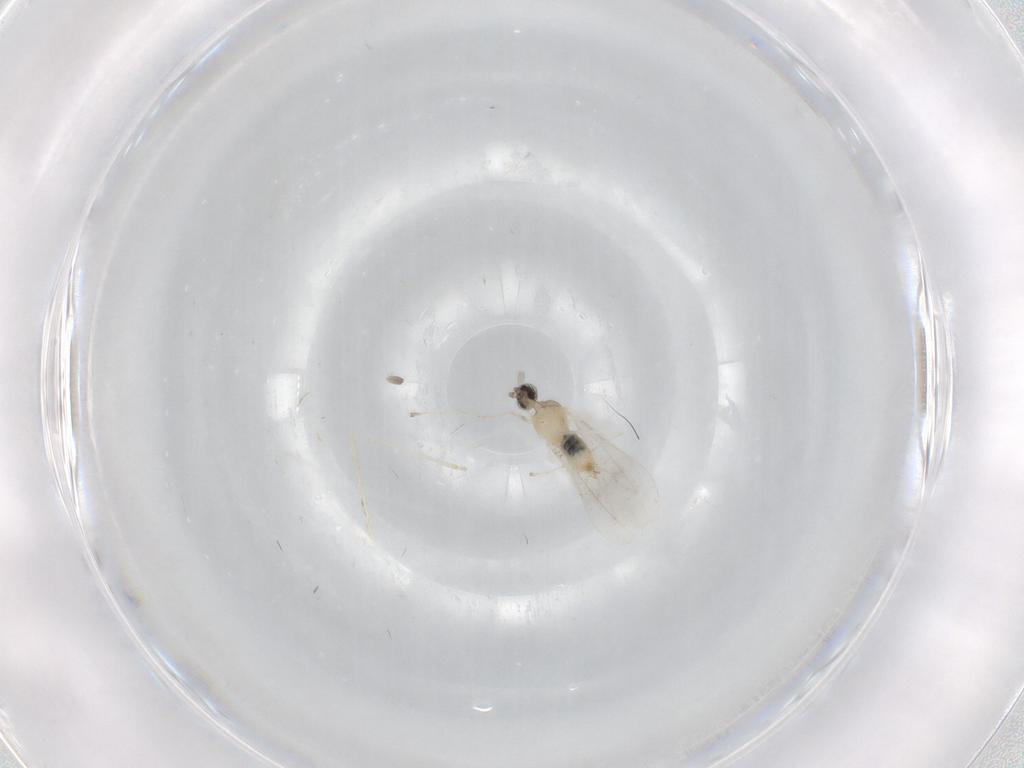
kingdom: Animalia
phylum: Arthropoda
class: Insecta
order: Diptera
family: Cecidomyiidae
